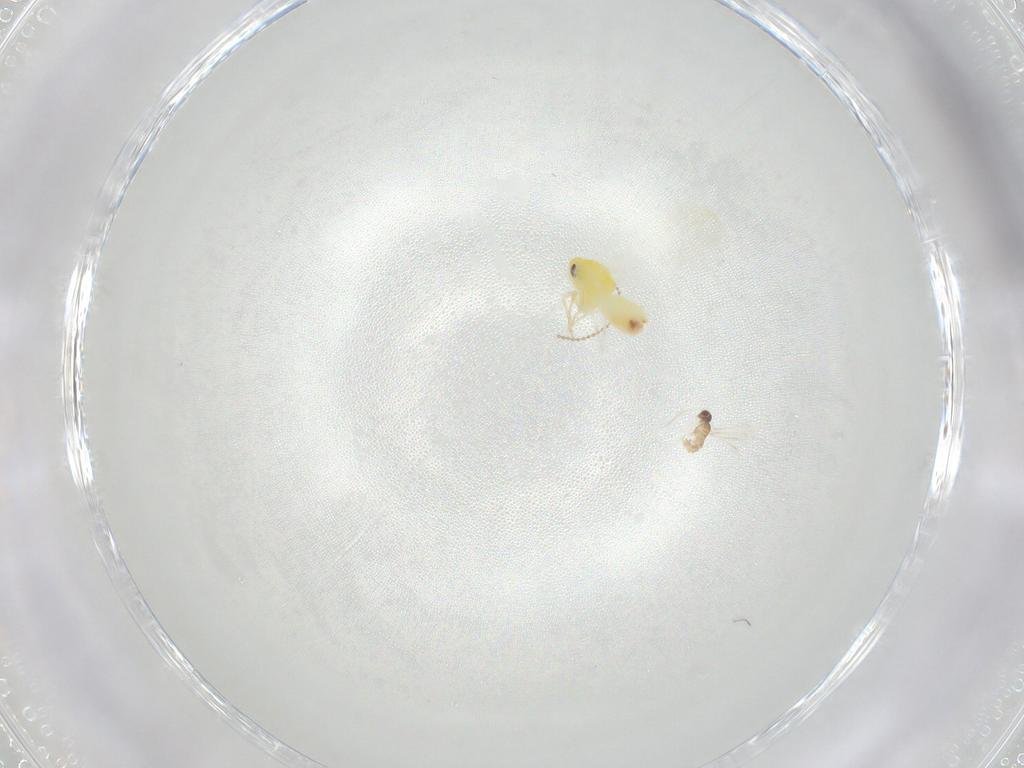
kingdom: Animalia
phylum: Arthropoda
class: Insecta
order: Hemiptera
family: Aleyrodidae
